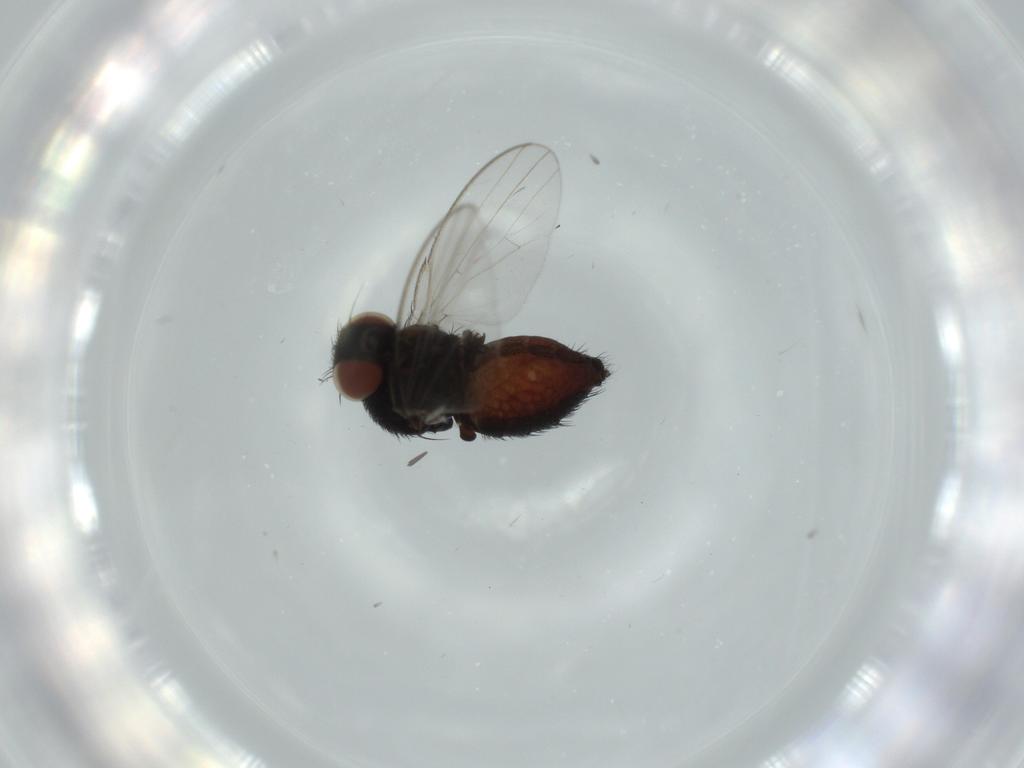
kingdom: Animalia
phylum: Arthropoda
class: Insecta
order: Diptera
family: Milichiidae
